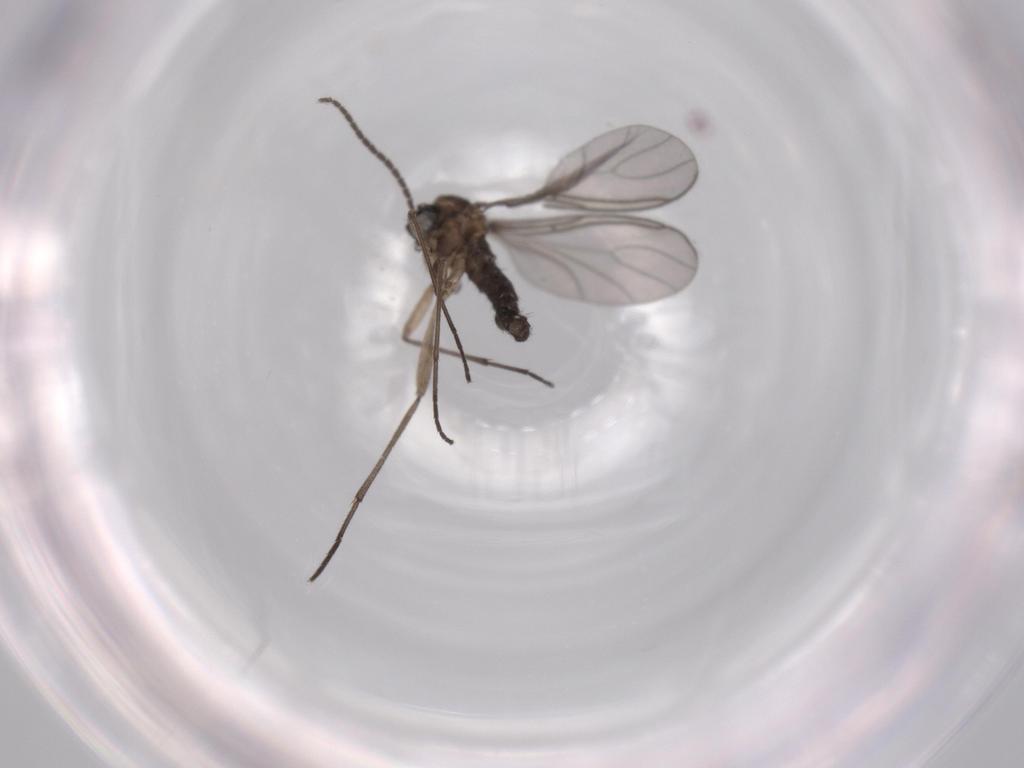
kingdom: Animalia
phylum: Arthropoda
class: Insecta
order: Diptera
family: Sciaridae
